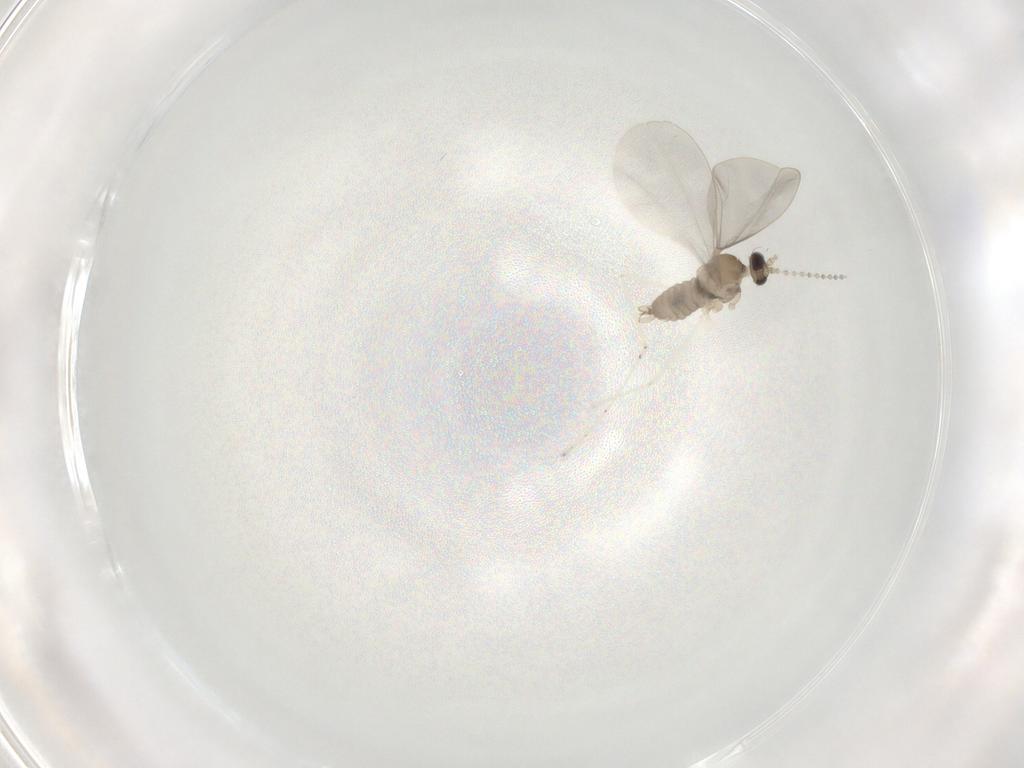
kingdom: Animalia
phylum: Arthropoda
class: Insecta
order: Diptera
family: Cecidomyiidae
